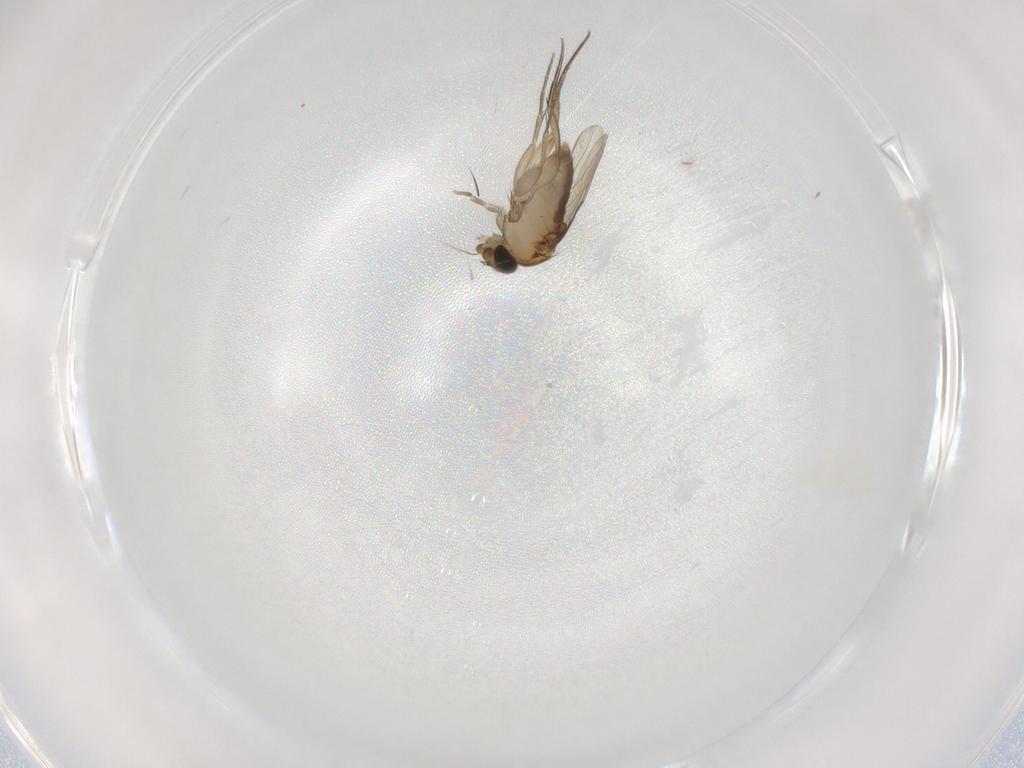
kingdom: Animalia
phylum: Arthropoda
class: Insecta
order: Diptera
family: Phoridae
